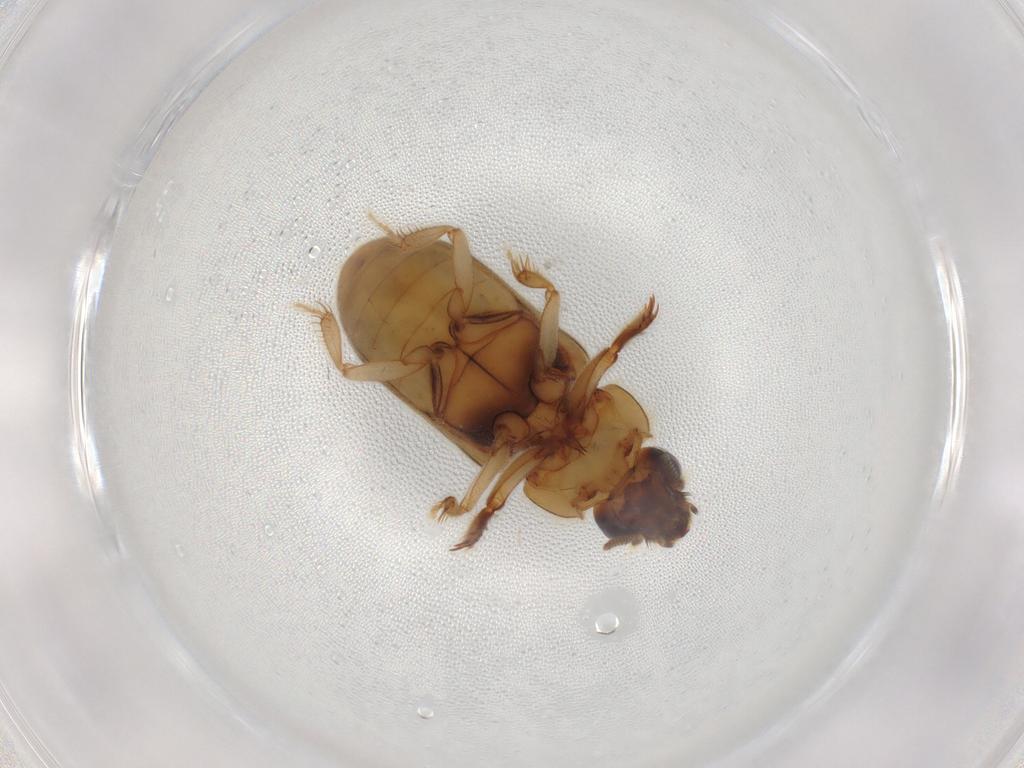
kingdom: Animalia
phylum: Arthropoda
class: Insecta
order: Coleoptera
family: Heteroceridae
